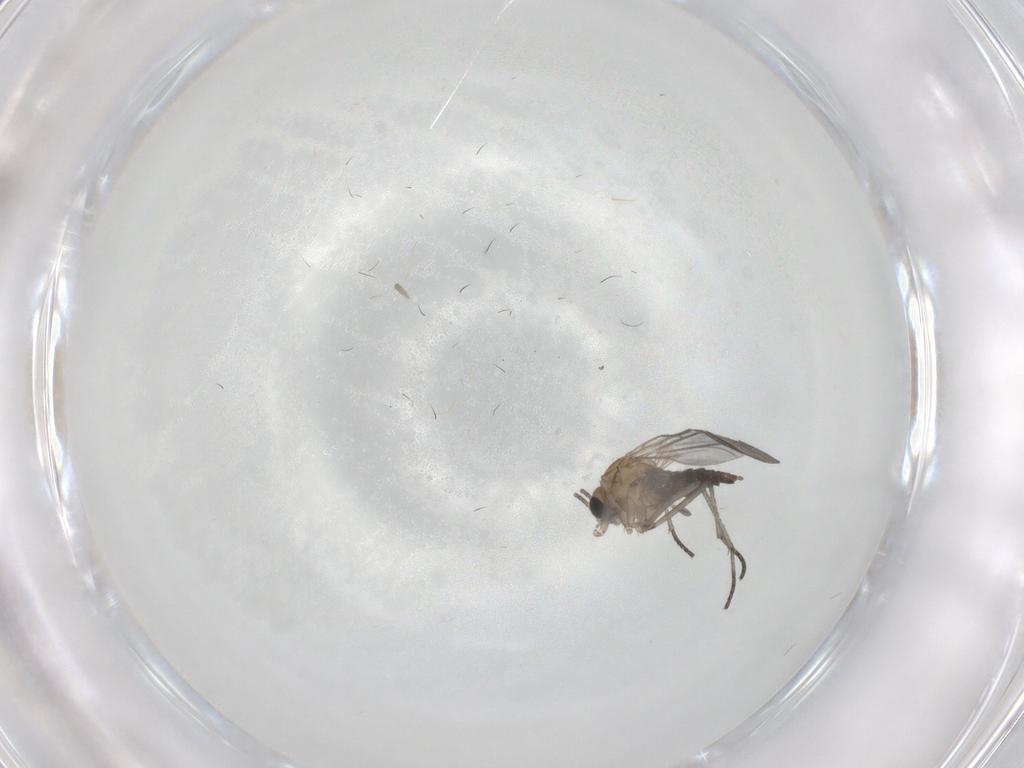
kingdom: Animalia
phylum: Arthropoda
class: Insecta
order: Diptera
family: Sciaridae
